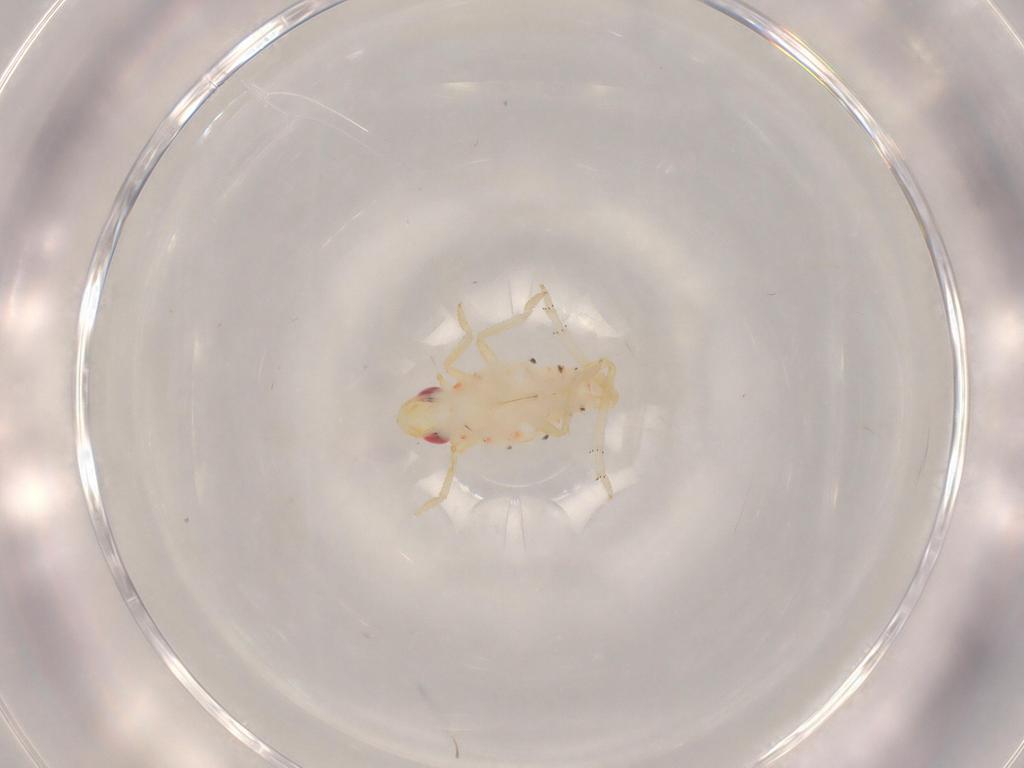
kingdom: Animalia
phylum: Arthropoda
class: Insecta
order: Hemiptera
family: Tropiduchidae
